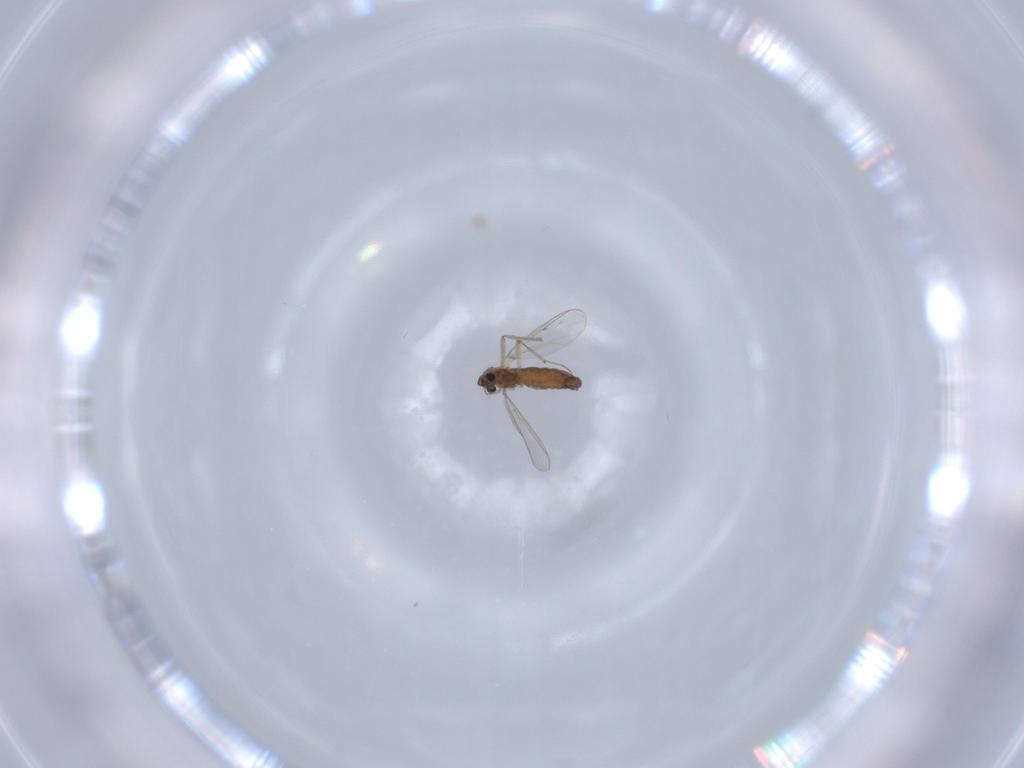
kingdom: Animalia
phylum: Arthropoda
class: Insecta
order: Diptera
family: Chironomidae
